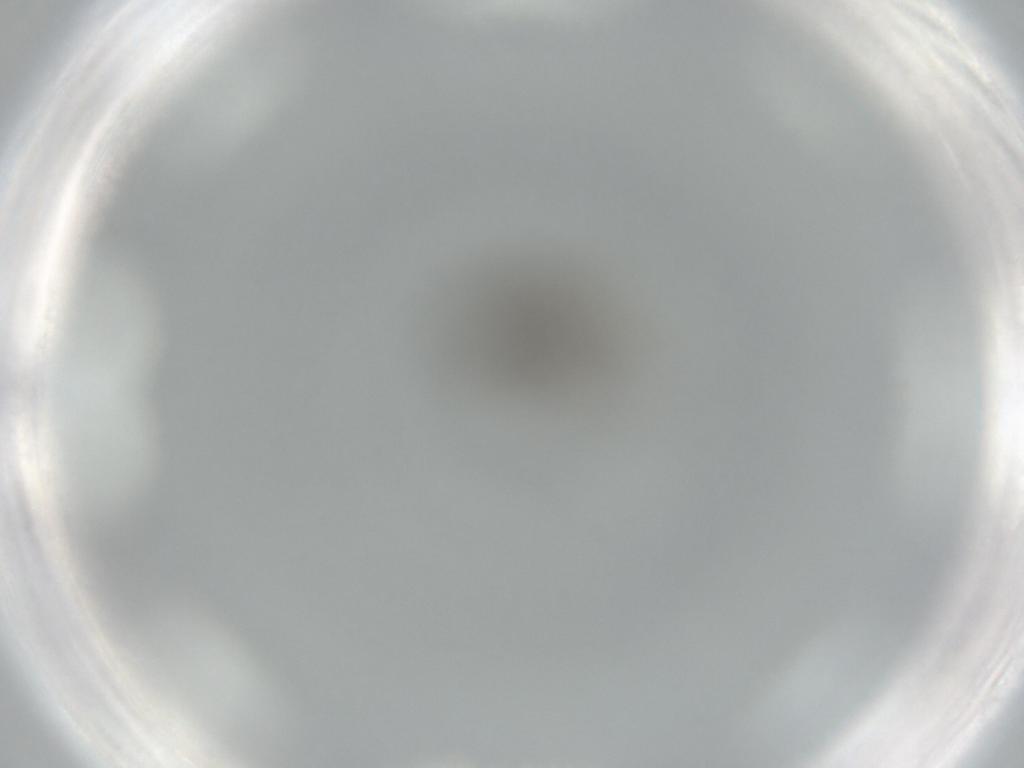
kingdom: Animalia
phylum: Arthropoda
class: Insecta
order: Diptera
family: Phoridae
